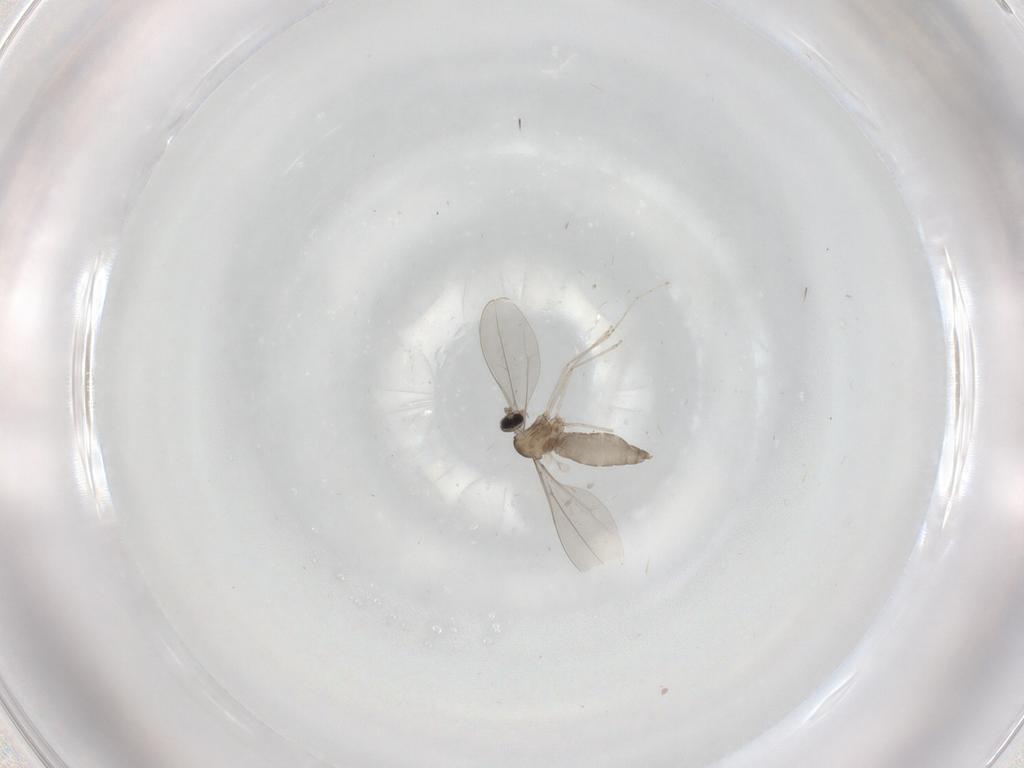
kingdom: Animalia
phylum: Arthropoda
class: Insecta
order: Diptera
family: Cecidomyiidae
